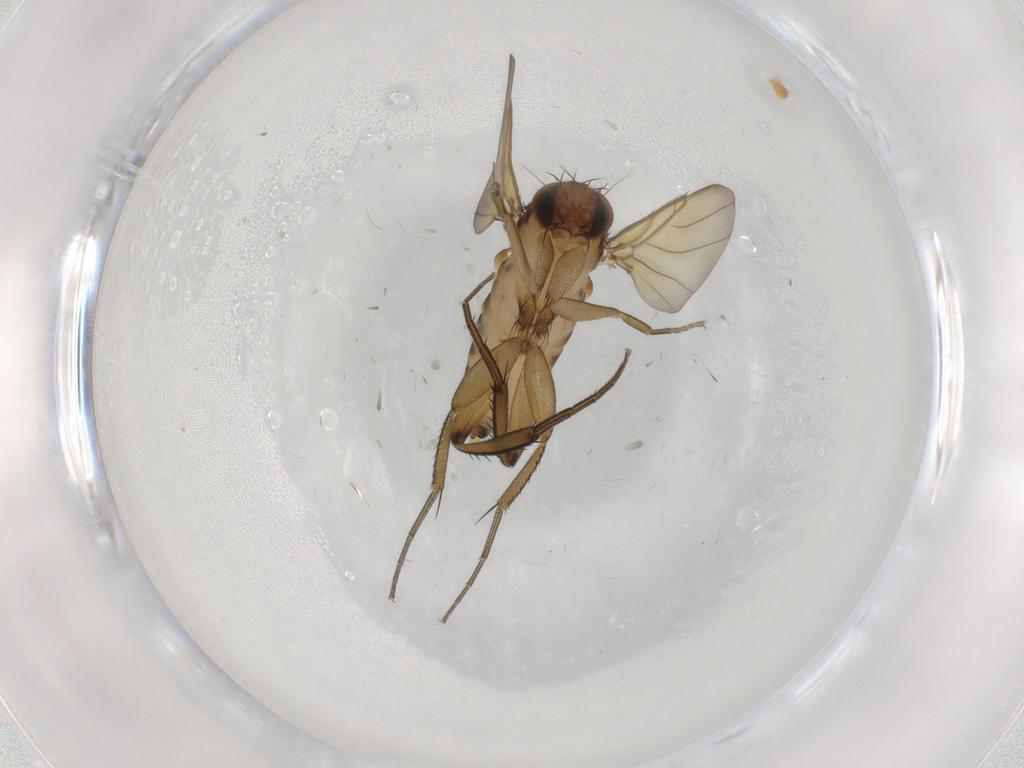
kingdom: Animalia
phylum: Arthropoda
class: Insecta
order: Diptera
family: Phoridae
